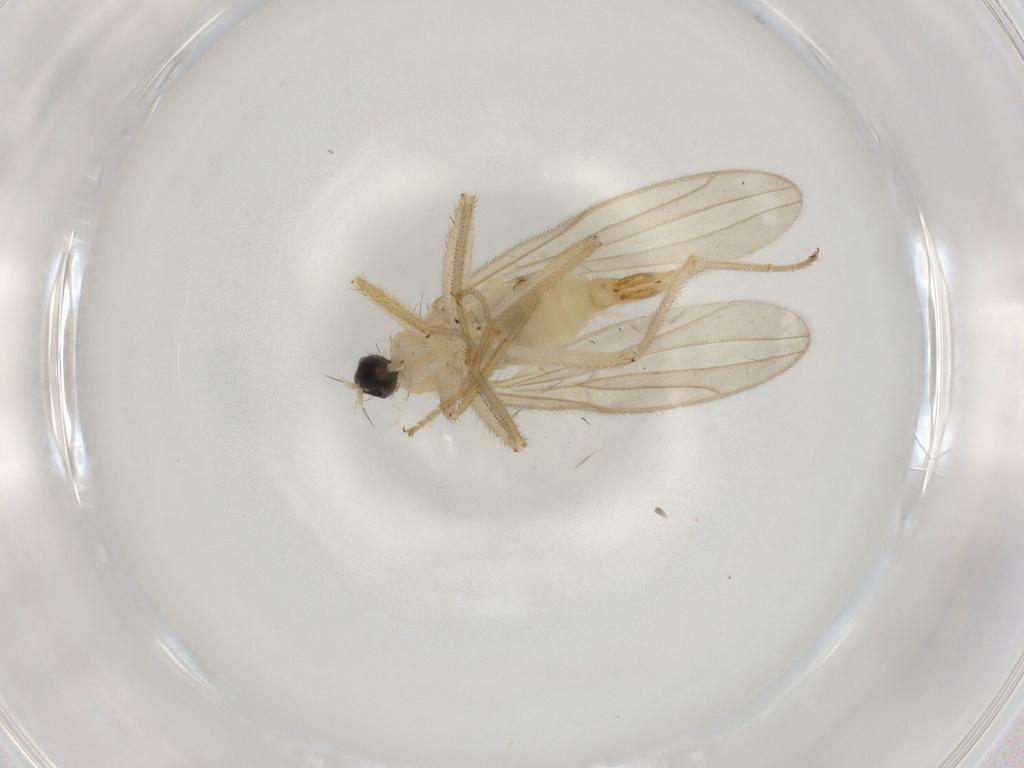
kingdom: Animalia
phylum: Arthropoda
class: Insecta
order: Diptera
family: Hybotidae
